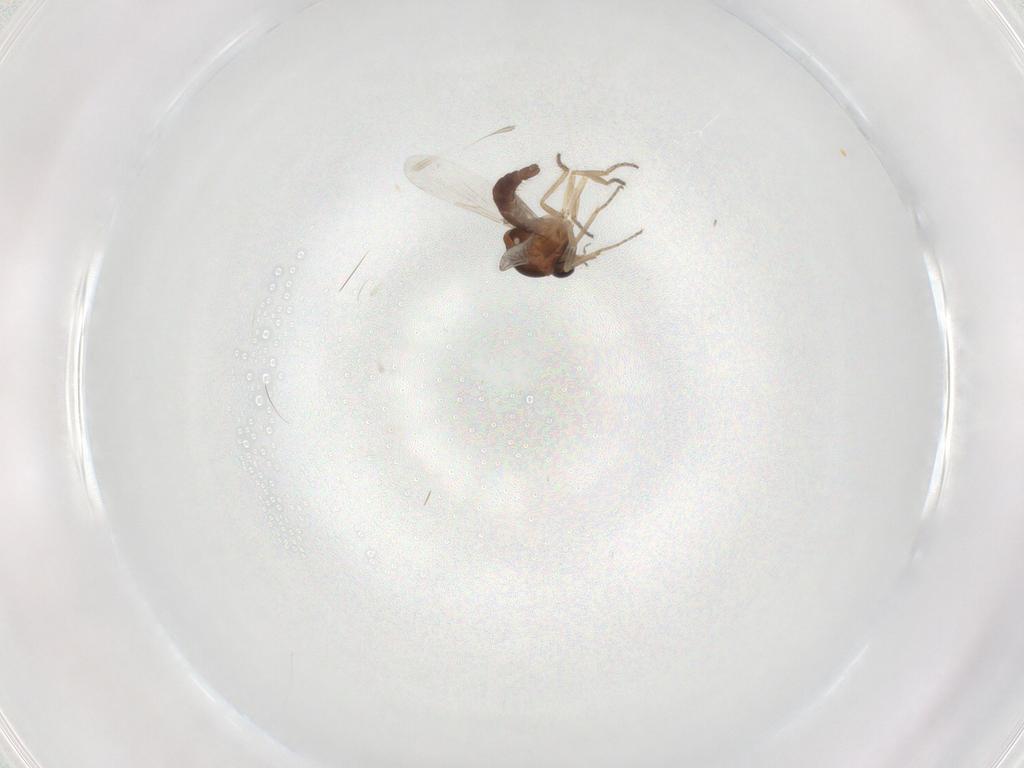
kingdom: Animalia
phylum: Arthropoda
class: Insecta
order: Diptera
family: Ceratopogonidae
